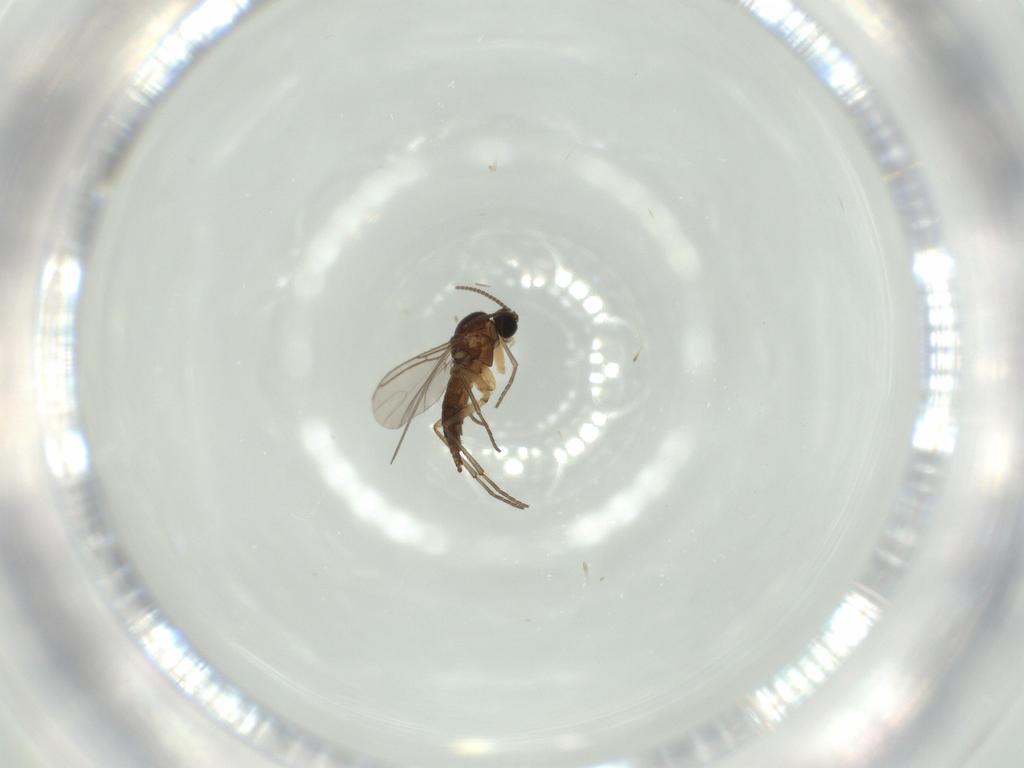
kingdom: Animalia
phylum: Arthropoda
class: Insecta
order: Diptera
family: Sciaridae
